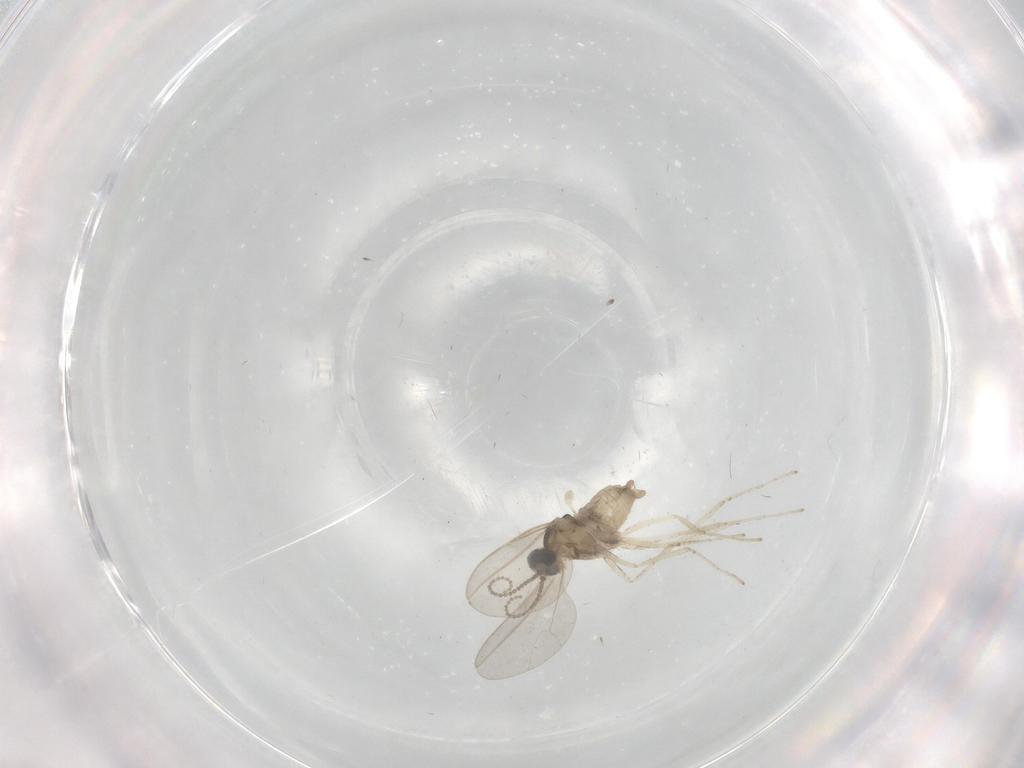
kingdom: Animalia
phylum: Arthropoda
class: Insecta
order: Diptera
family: Cecidomyiidae
